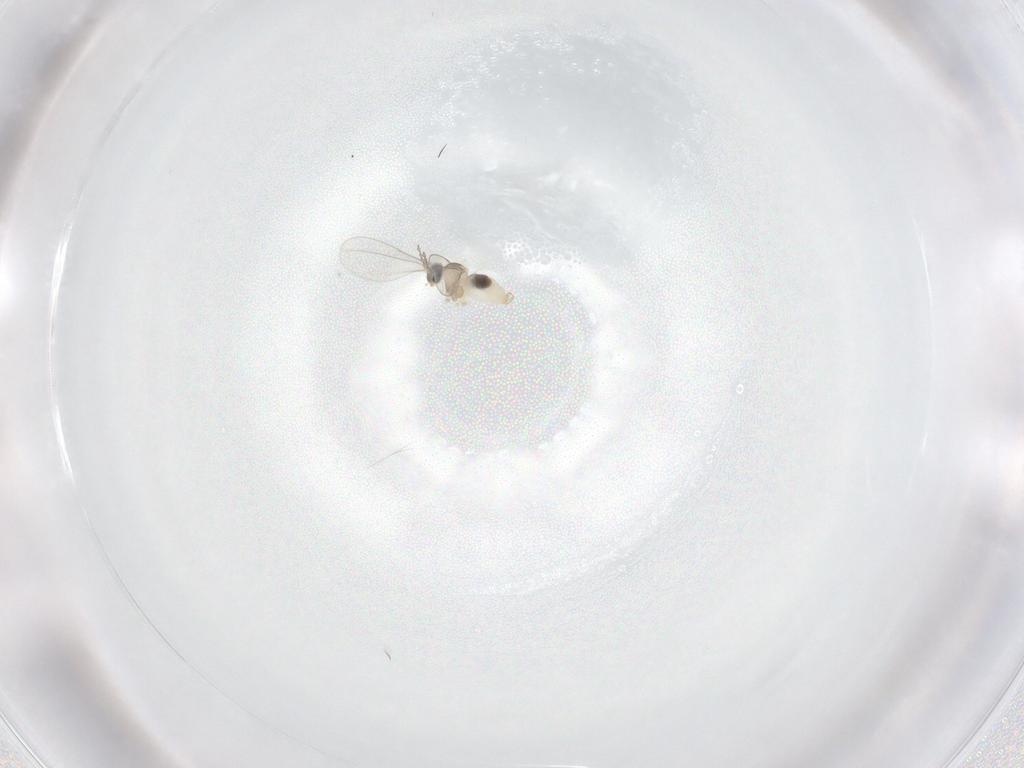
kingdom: Animalia
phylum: Arthropoda
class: Insecta
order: Diptera
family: Cecidomyiidae
